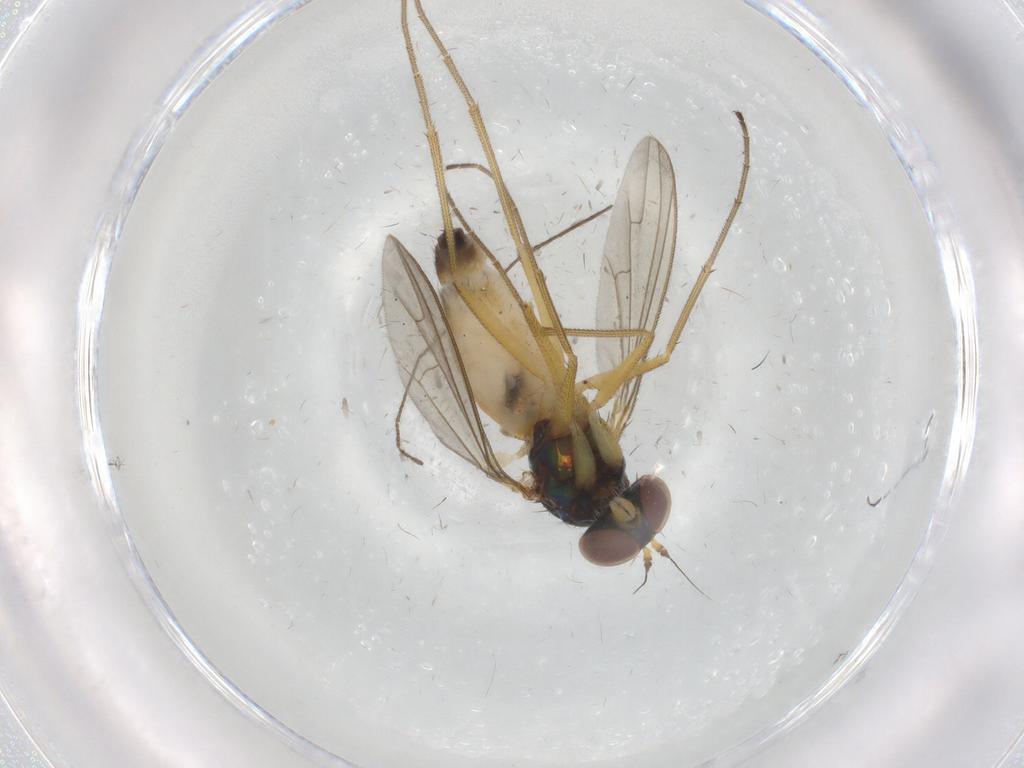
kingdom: Animalia
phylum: Arthropoda
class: Insecta
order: Diptera
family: Dolichopodidae
